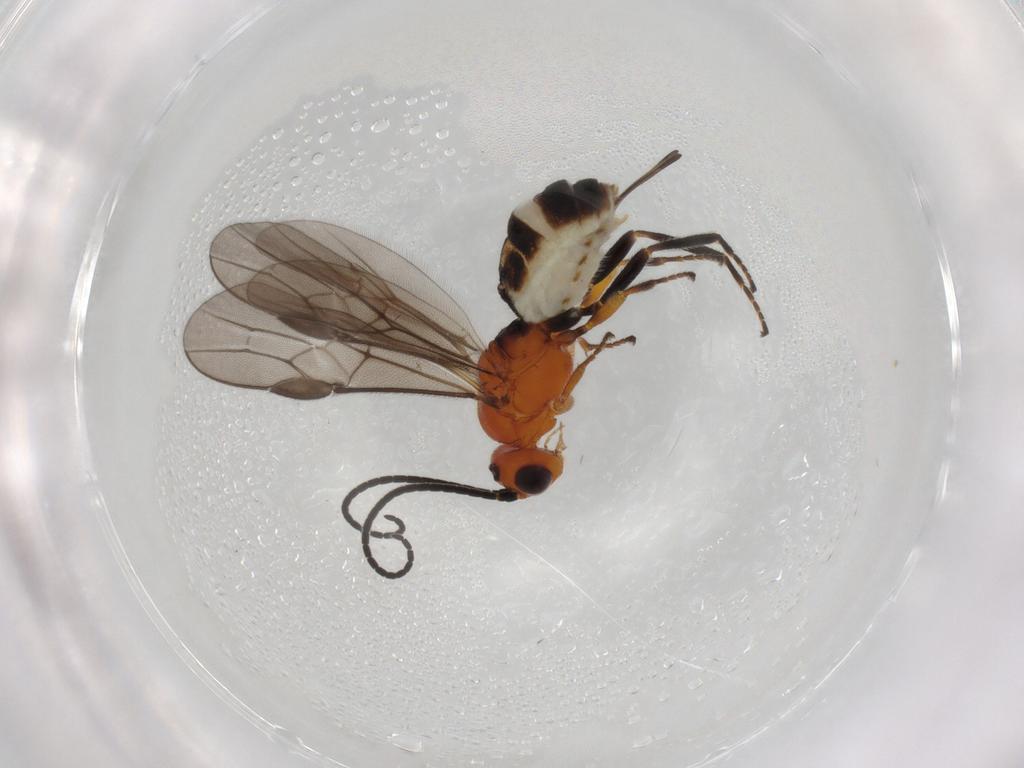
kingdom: Animalia
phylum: Arthropoda
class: Insecta
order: Hymenoptera
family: Braconidae
